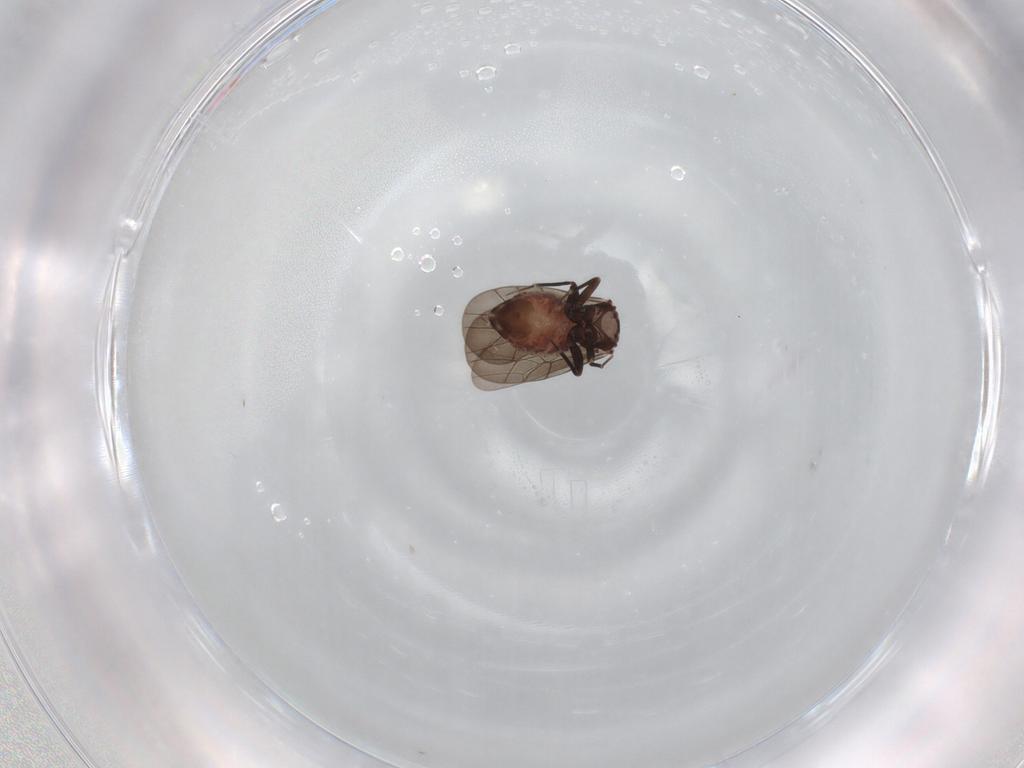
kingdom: Animalia
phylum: Arthropoda
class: Insecta
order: Psocodea
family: Lepidopsocidae
